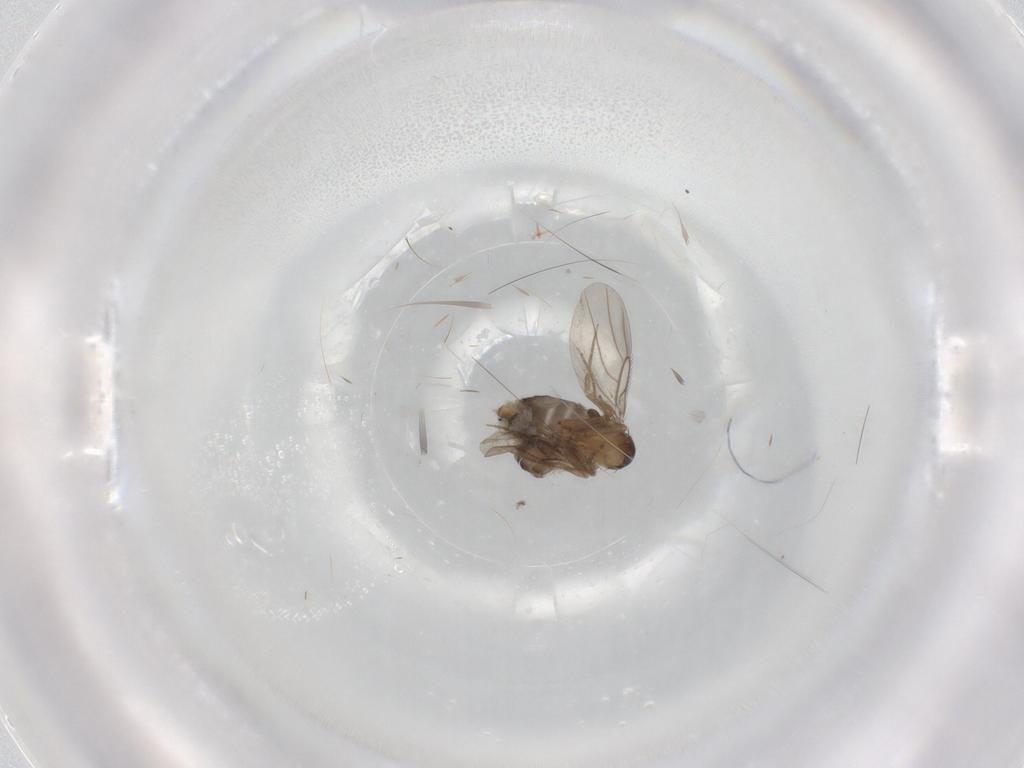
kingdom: Animalia
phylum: Arthropoda
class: Insecta
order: Diptera
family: Cecidomyiidae
